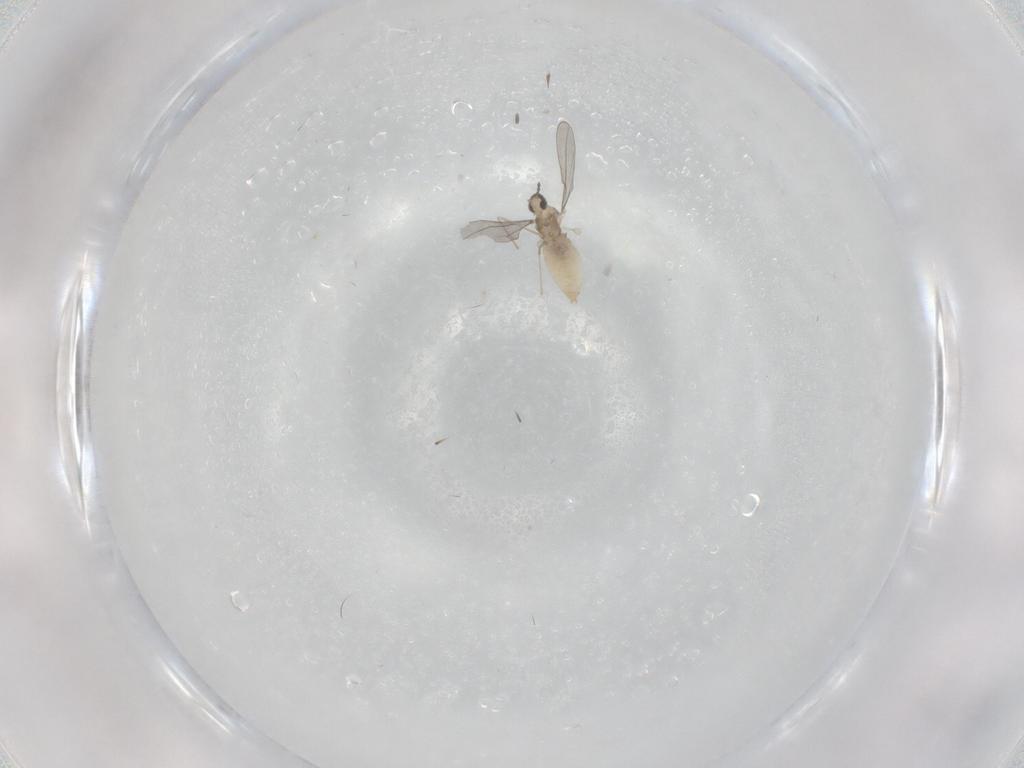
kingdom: Animalia
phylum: Arthropoda
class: Insecta
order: Diptera
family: Cecidomyiidae
